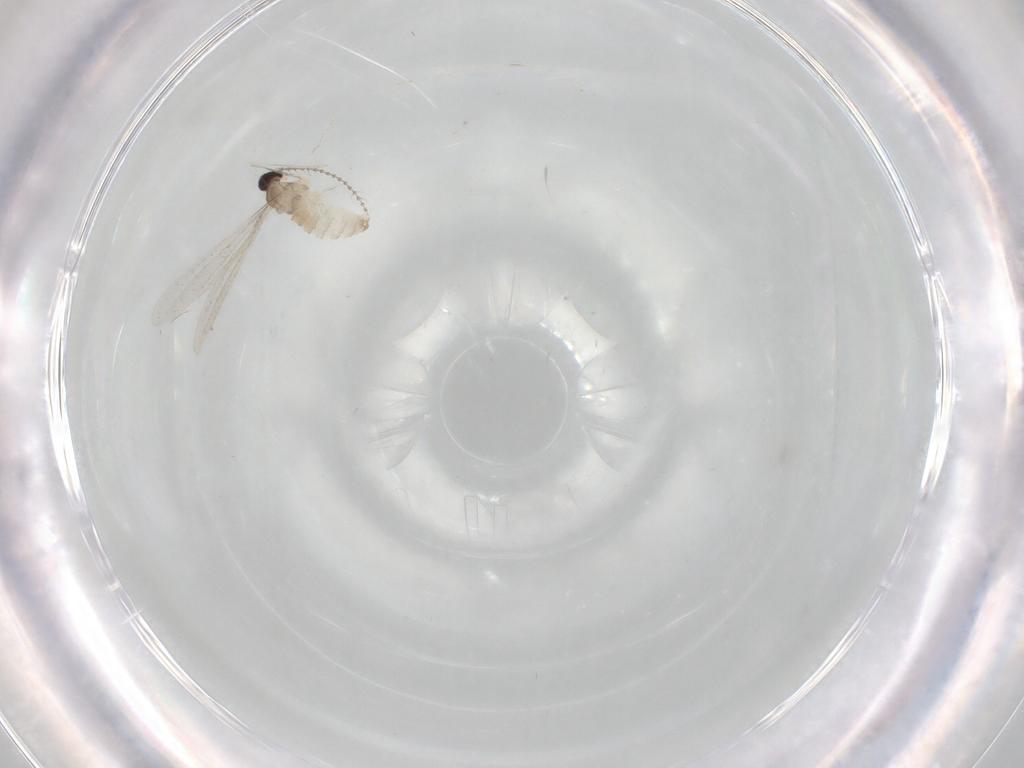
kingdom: Animalia
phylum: Arthropoda
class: Insecta
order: Diptera
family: Cecidomyiidae
